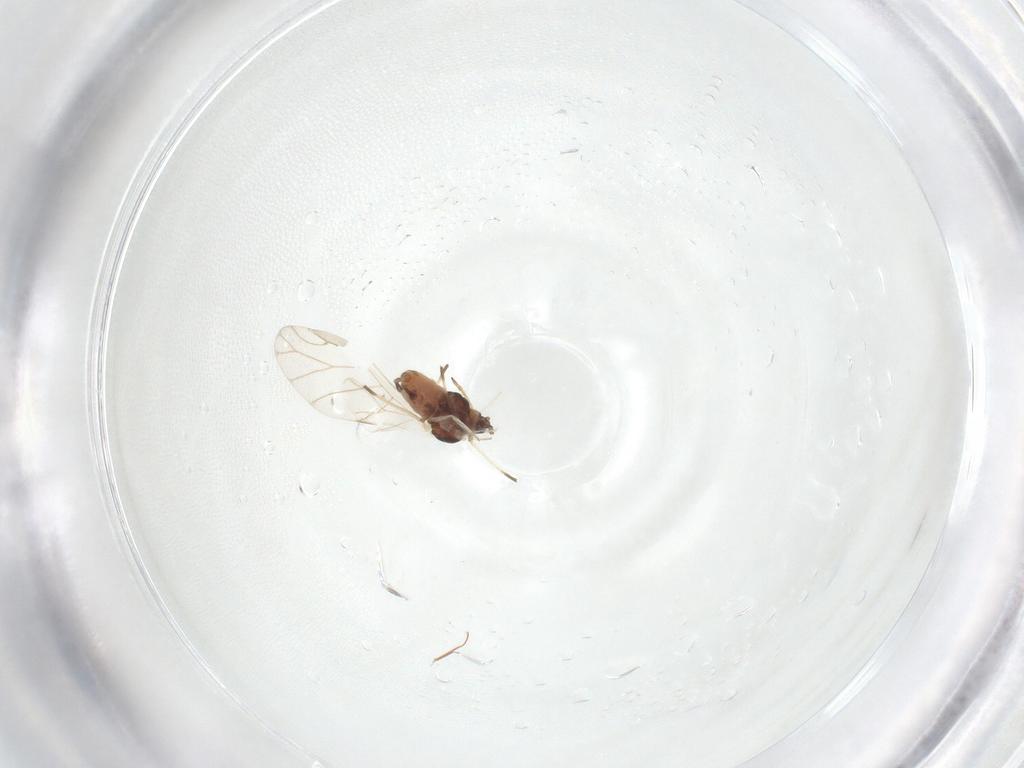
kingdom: Animalia
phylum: Arthropoda
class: Insecta
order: Hemiptera
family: Aphididae
